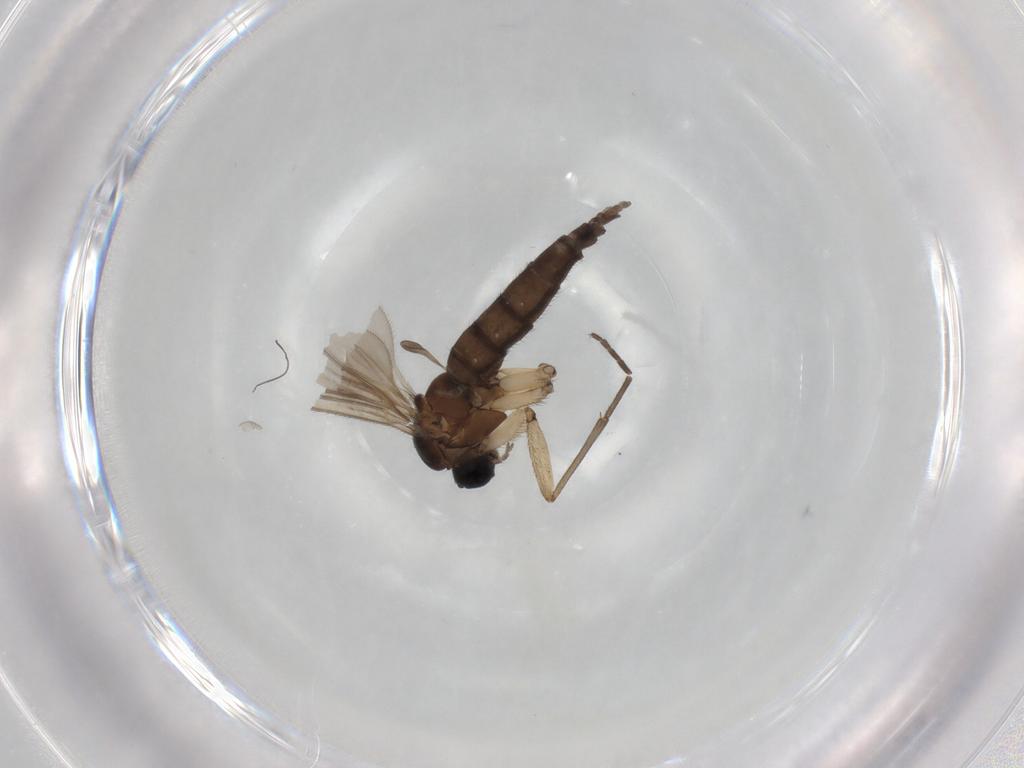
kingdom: Animalia
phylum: Arthropoda
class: Insecta
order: Diptera
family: Sciaridae
